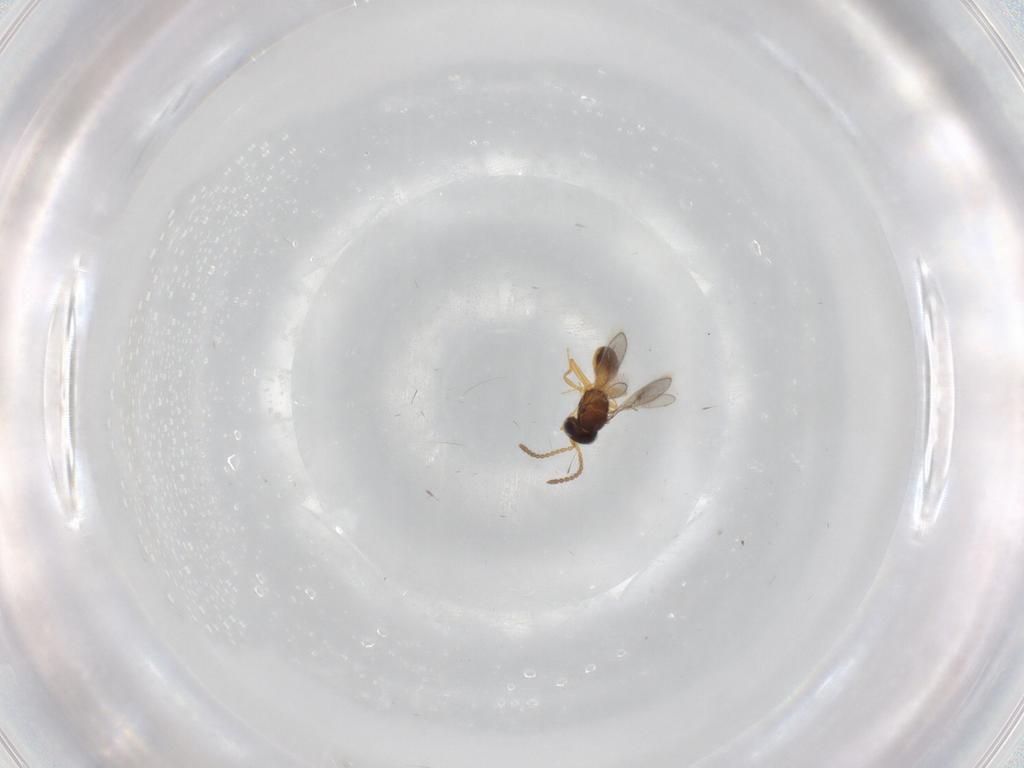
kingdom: Animalia
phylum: Arthropoda
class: Insecta
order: Hymenoptera
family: Scelionidae
